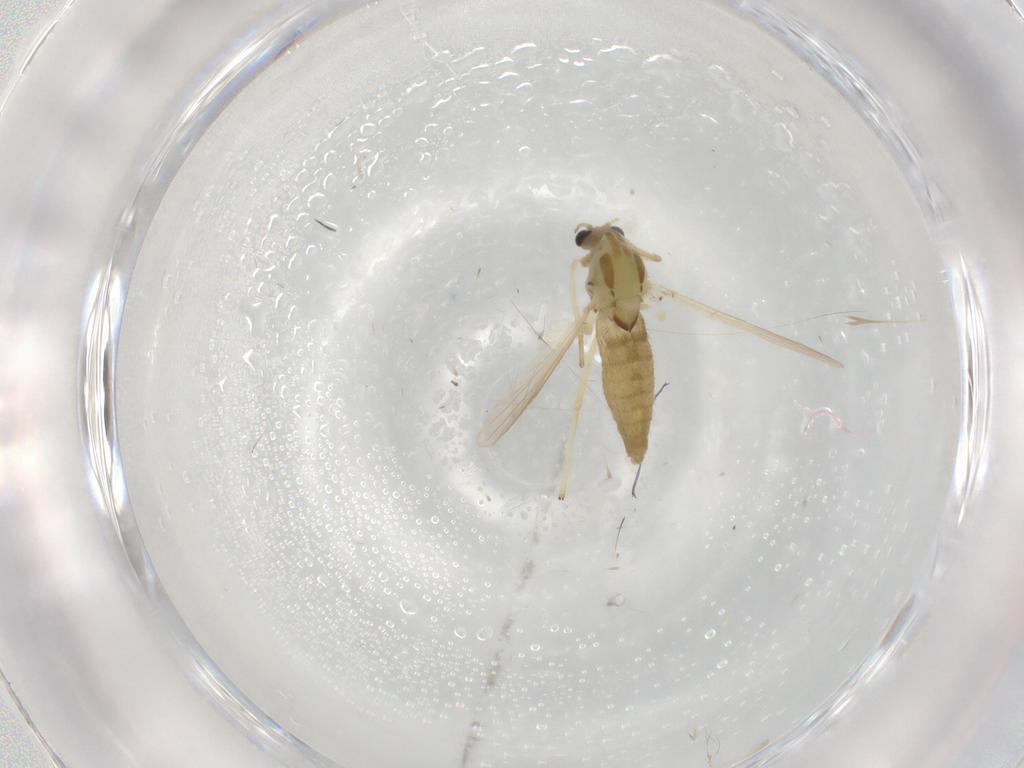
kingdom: Animalia
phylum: Arthropoda
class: Insecta
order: Diptera
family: Chironomidae
